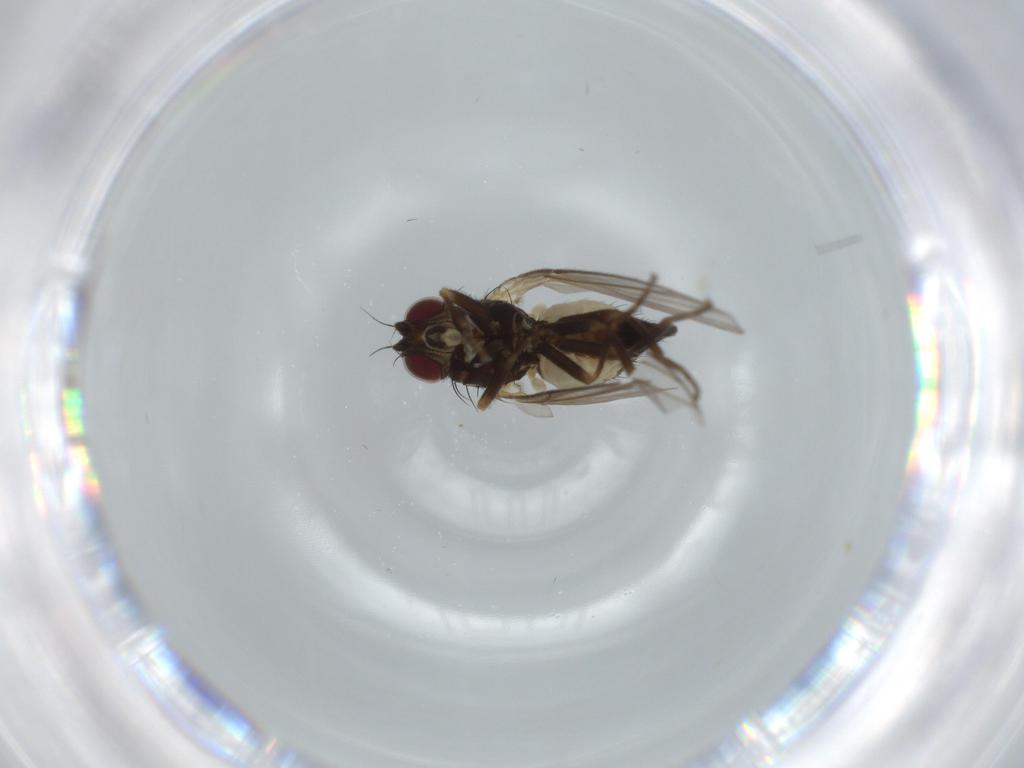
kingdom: Animalia
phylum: Arthropoda
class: Insecta
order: Diptera
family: Agromyzidae
